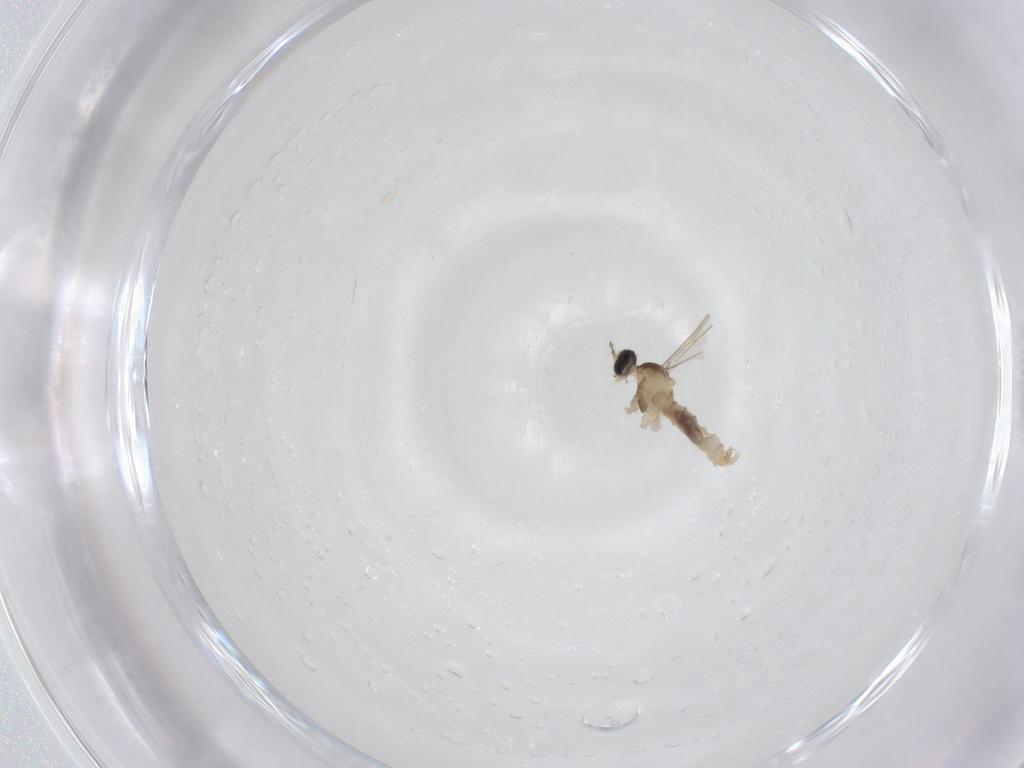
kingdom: Animalia
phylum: Arthropoda
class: Insecta
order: Diptera
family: Cecidomyiidae
